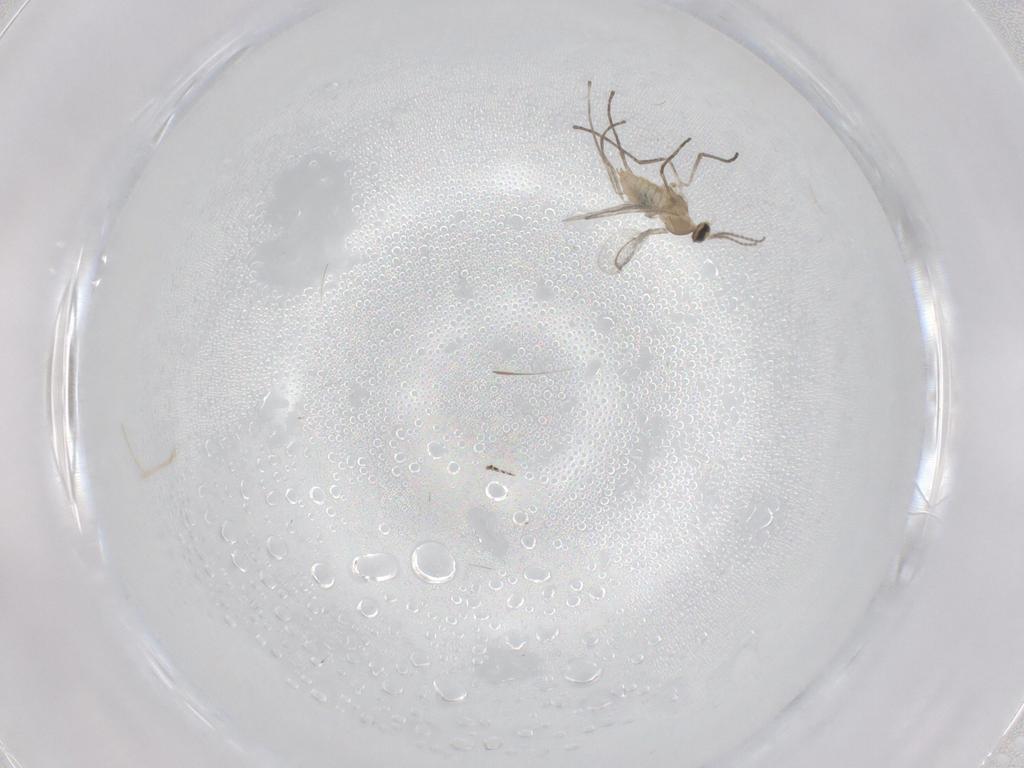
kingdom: Animalia
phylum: Arthropoda
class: Insecta
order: Diptera
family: Cecidomyiidae
